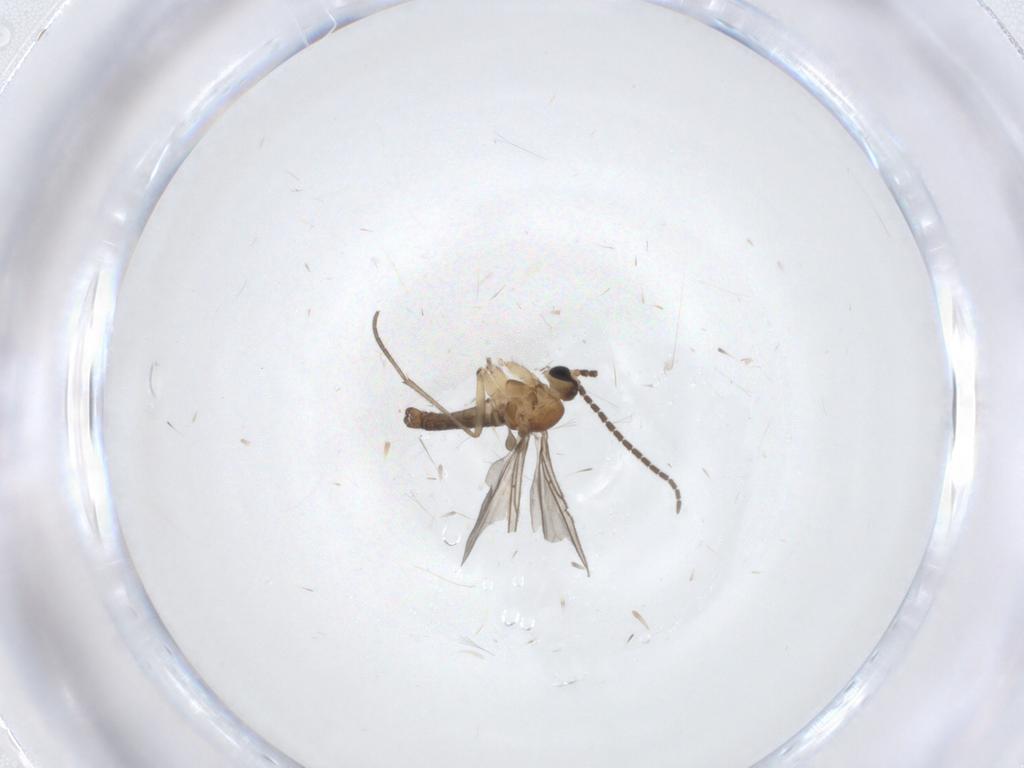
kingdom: Animalia
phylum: Arthropoda
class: Insecta
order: Diptera
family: Sciaridae
